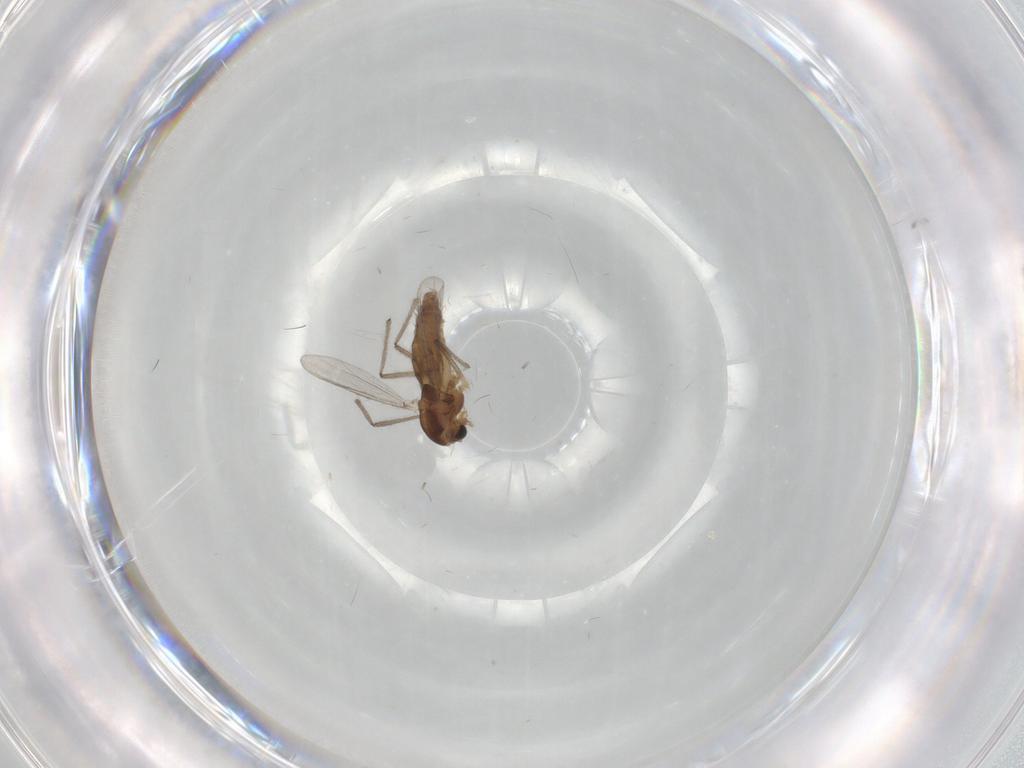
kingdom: Animalia
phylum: Arthropoda
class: Insecta
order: Diptera
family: Chironomidae
